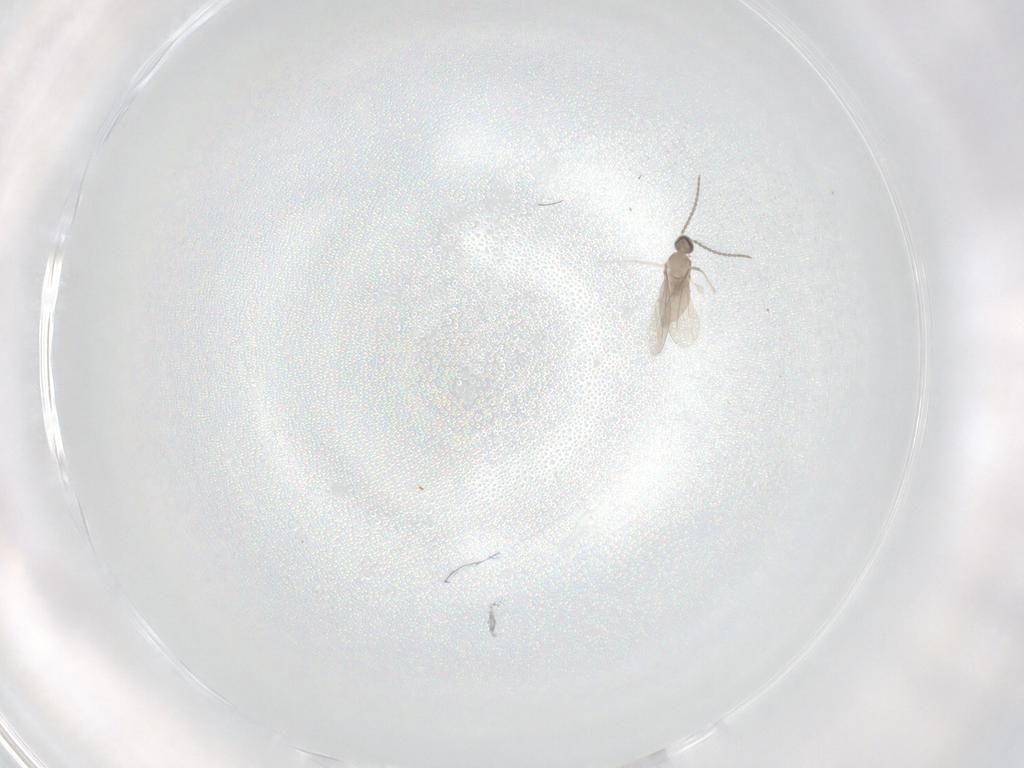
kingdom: Animalia
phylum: Arthropoda
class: Insecta
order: Diptera
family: Cecidomyiidae
